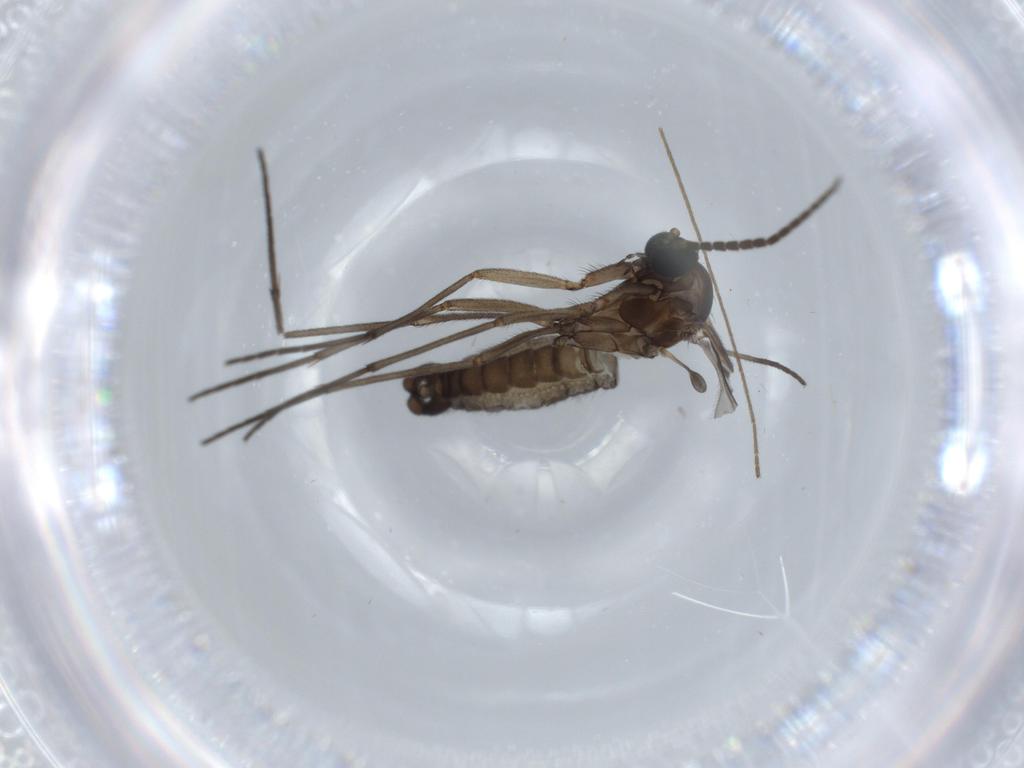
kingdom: Animalia
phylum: Arthropoda
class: Insecta
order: Diptera
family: Sciaridae
